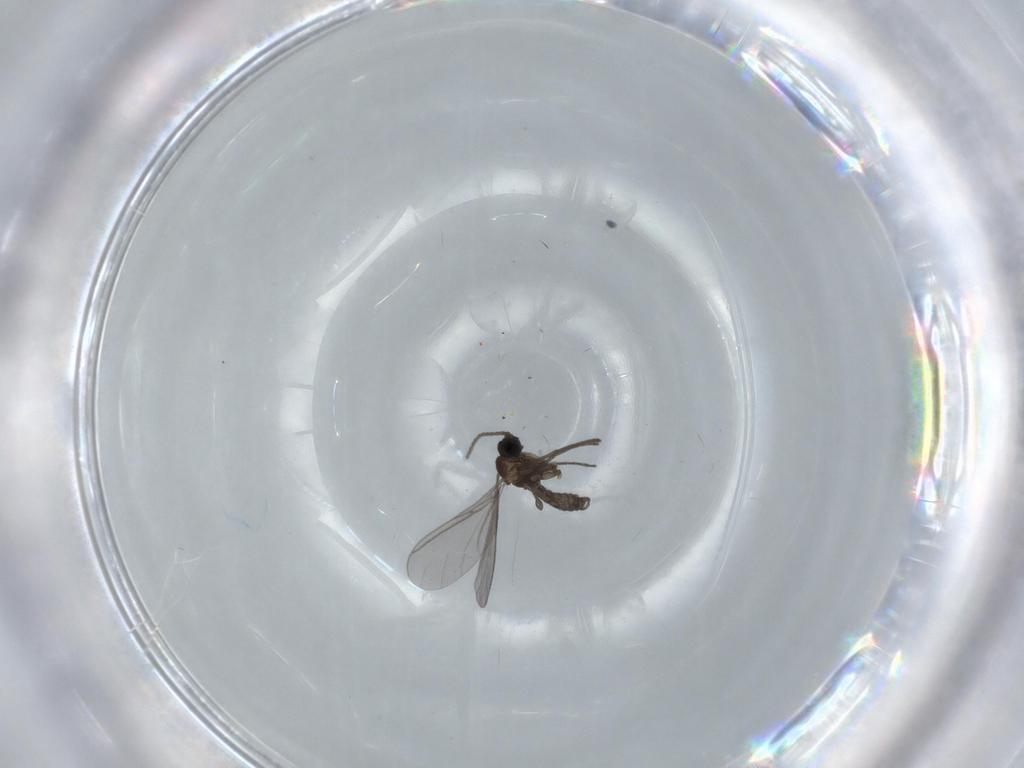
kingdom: Animalia
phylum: Arthropoda
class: Insecta
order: Diptera
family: Sciaridae
